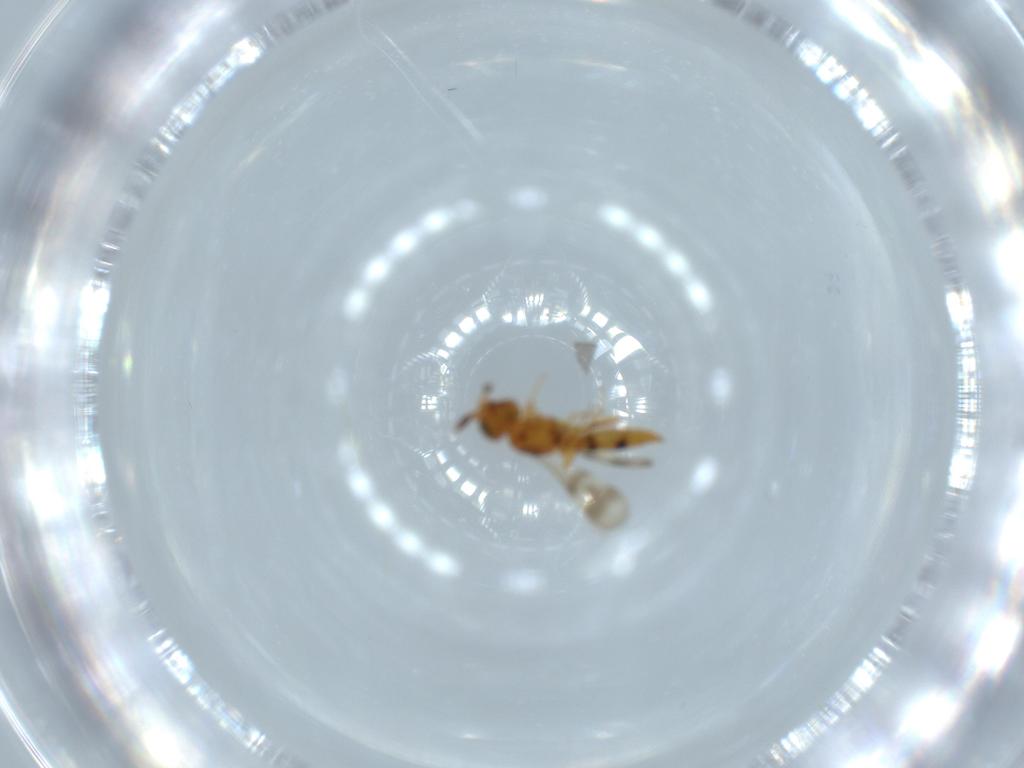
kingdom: Animalia
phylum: Arthropoda
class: Insecta
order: Hymenoptera
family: Scelionidae
